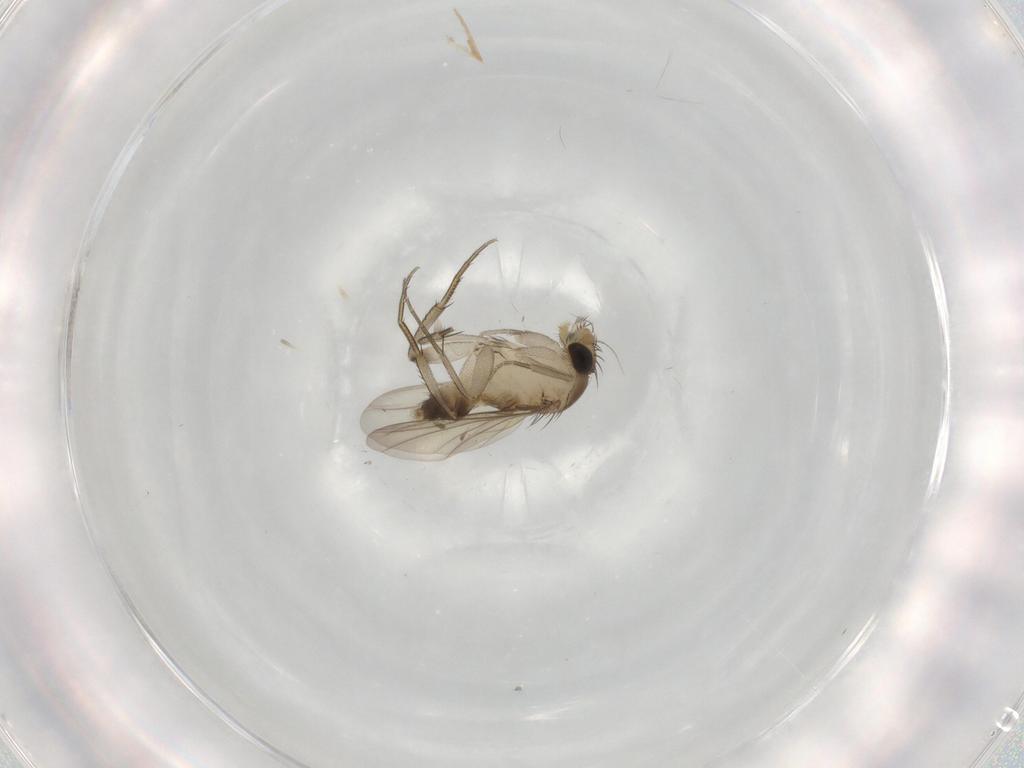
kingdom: Animalia
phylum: Arthropoda
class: Insecta
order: Diptera
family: Phoridae
